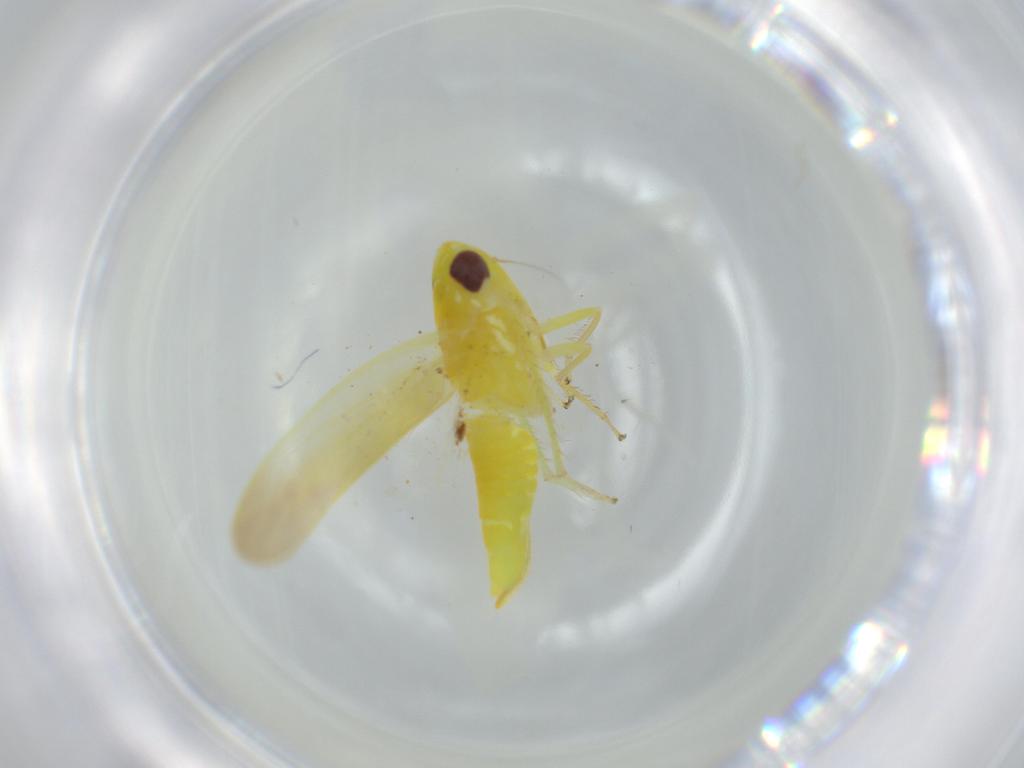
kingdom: Animalia
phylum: Arthropoda
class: Insecta
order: Hemiptera
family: Cicadellidae
